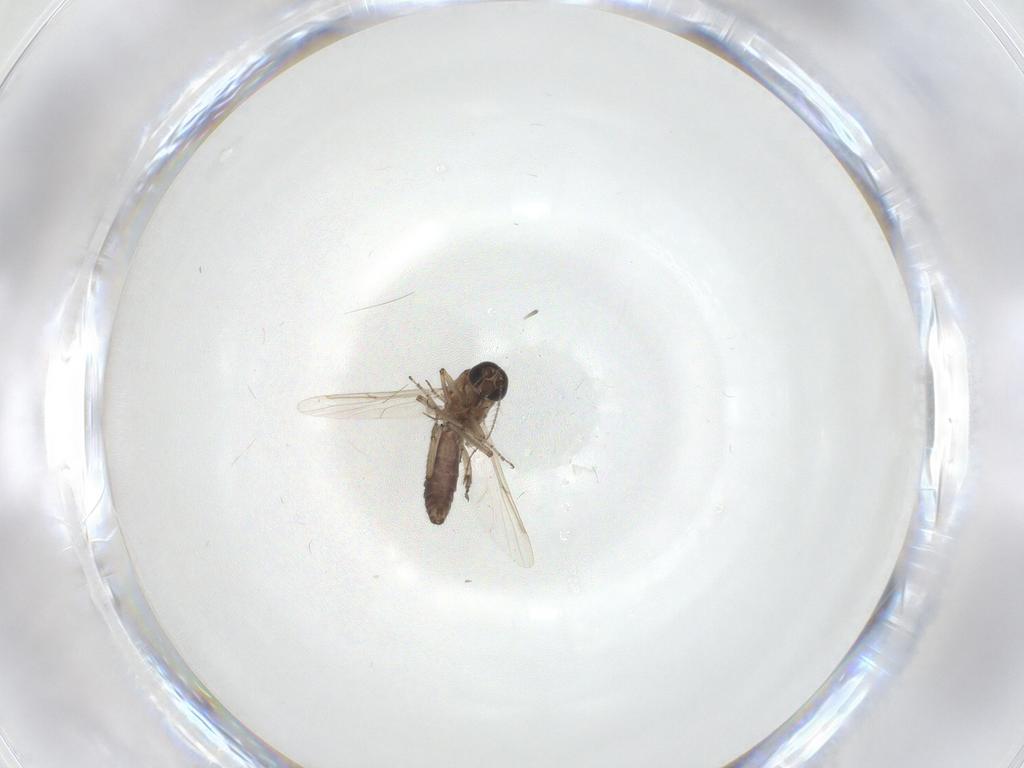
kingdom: Animalia
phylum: Arthropoda
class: Insecta
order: Diptera
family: Ceratopogonidae
